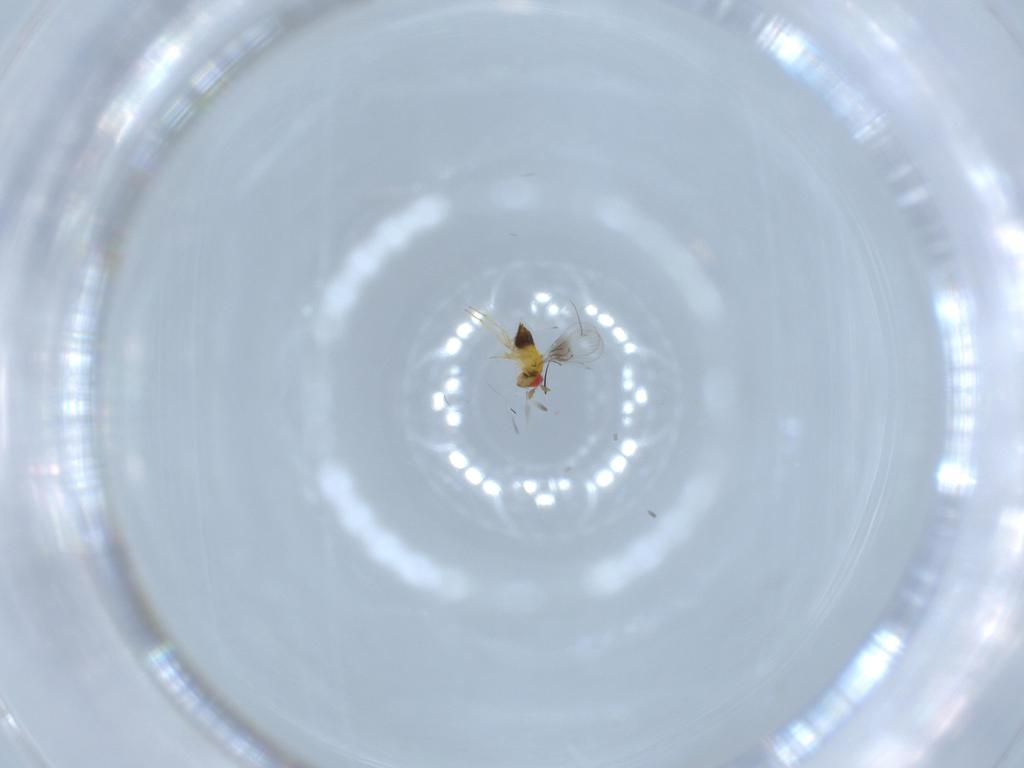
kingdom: Animalia
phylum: Arthropoda
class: Insecta
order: Hymenoptera
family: Trichogrammatidae
